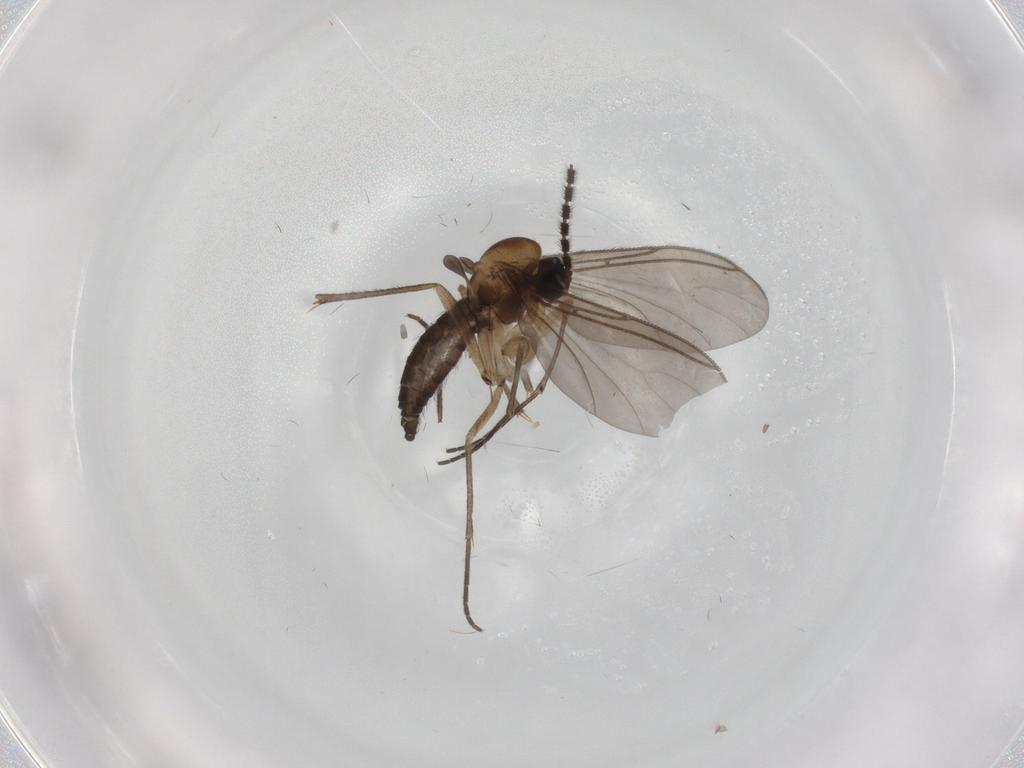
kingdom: Animalia
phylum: Arthropoda
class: Insecta
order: Diptera
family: Sciaridae
